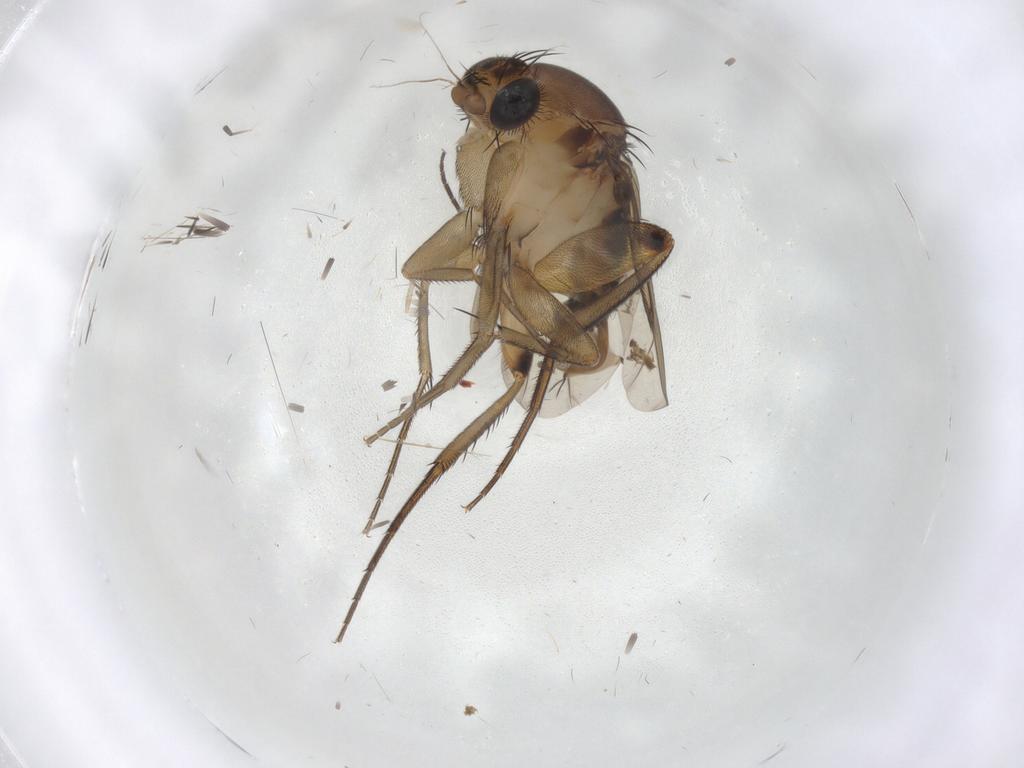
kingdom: Animalia
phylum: Arthropoda
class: Insecta
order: Diptera
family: Phoridae
